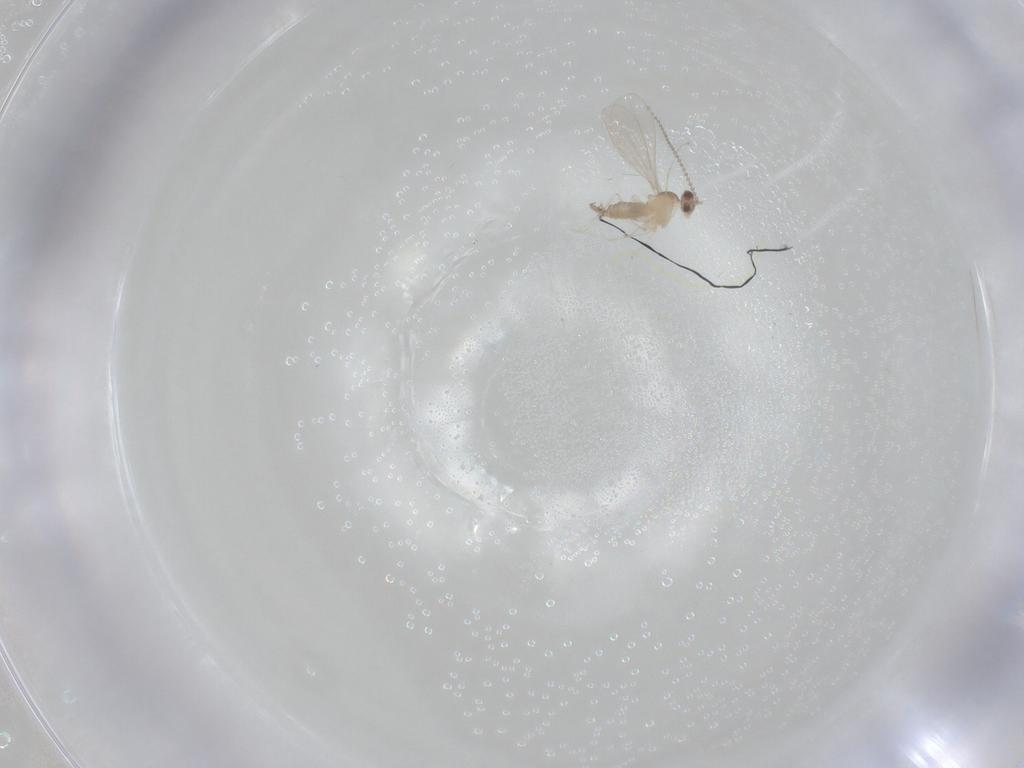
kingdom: Animalia
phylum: Arthropoda
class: Insecta
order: Diptera
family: Cecidomyiidae
